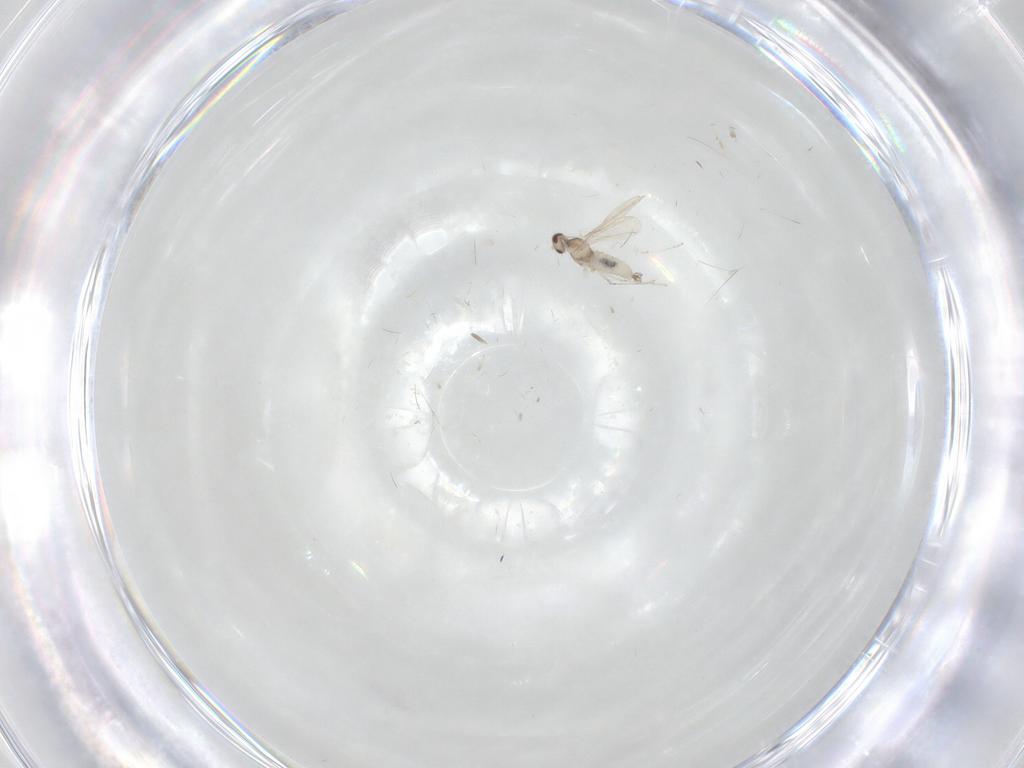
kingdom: Animalia
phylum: Arthropoda
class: Insecta
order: Diptera
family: Cecidomyiidae
